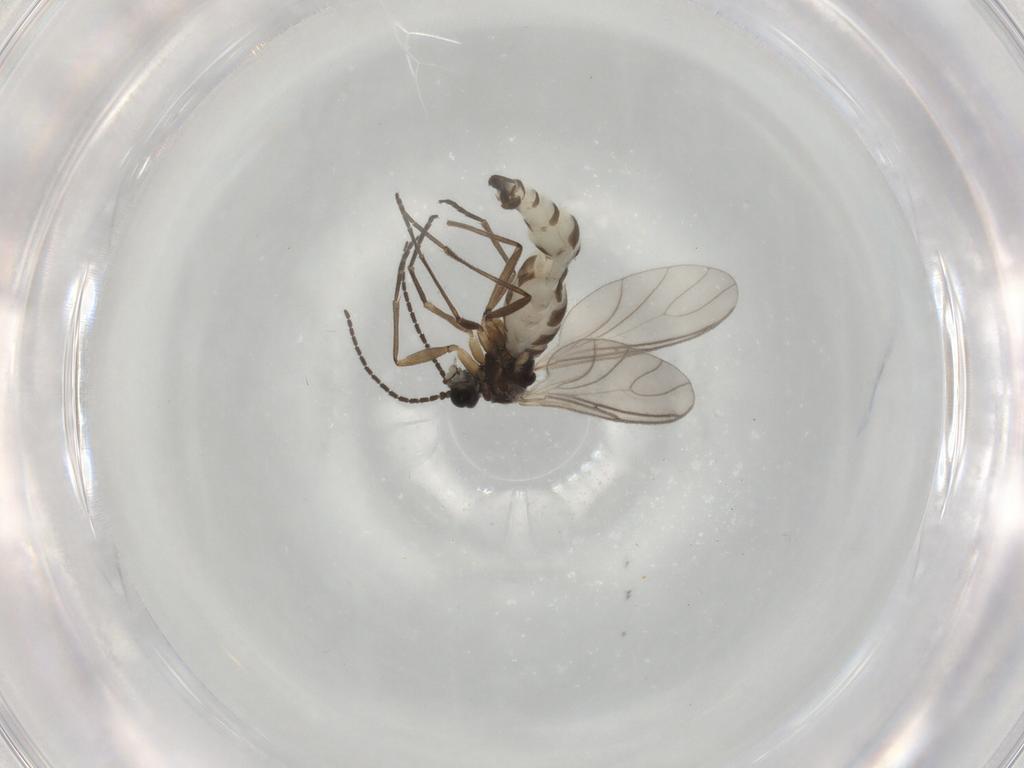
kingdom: Animalia
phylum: Arthropoda
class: Insecta
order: Diptera
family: Sciaridae
